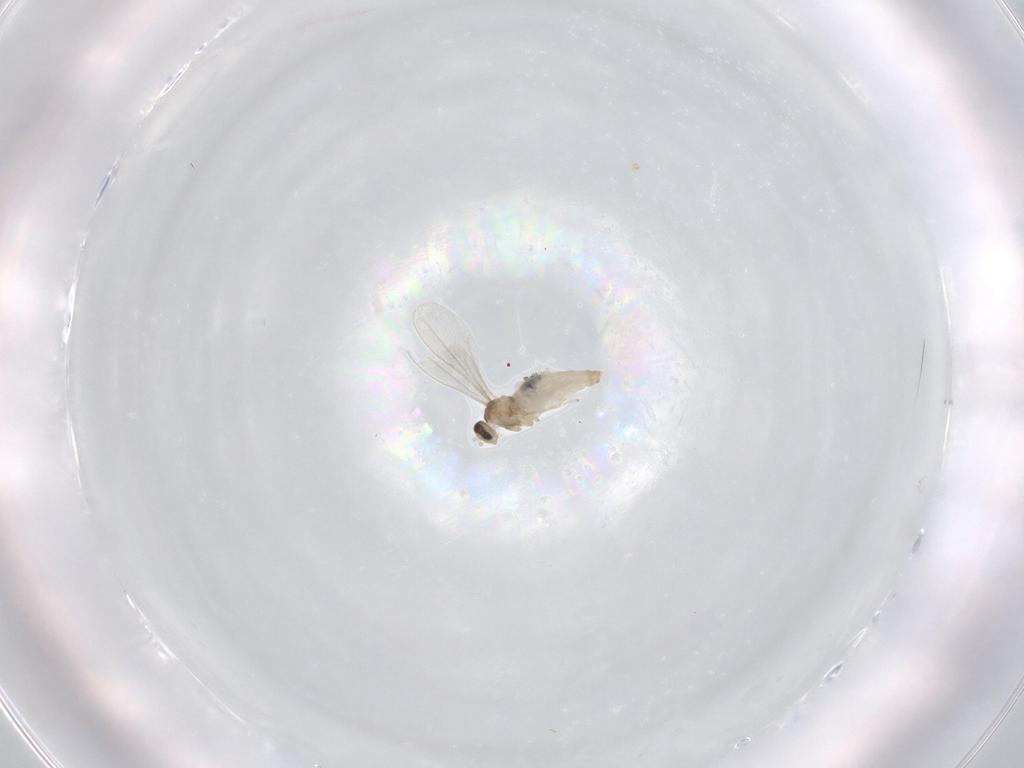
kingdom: Animalia
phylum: Arthropoda
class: Insecta
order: Diptera
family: Cecidomyiidae
